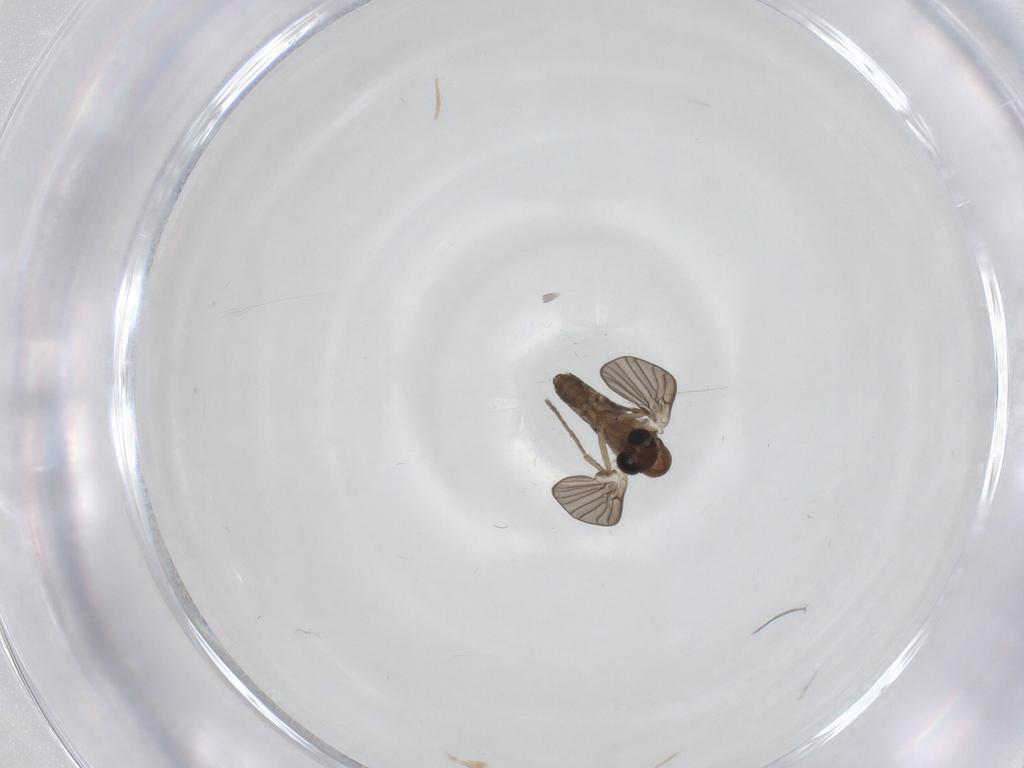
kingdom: Animalia
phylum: Arthropoda
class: Insecta
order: Diptera
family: Psychodidae
